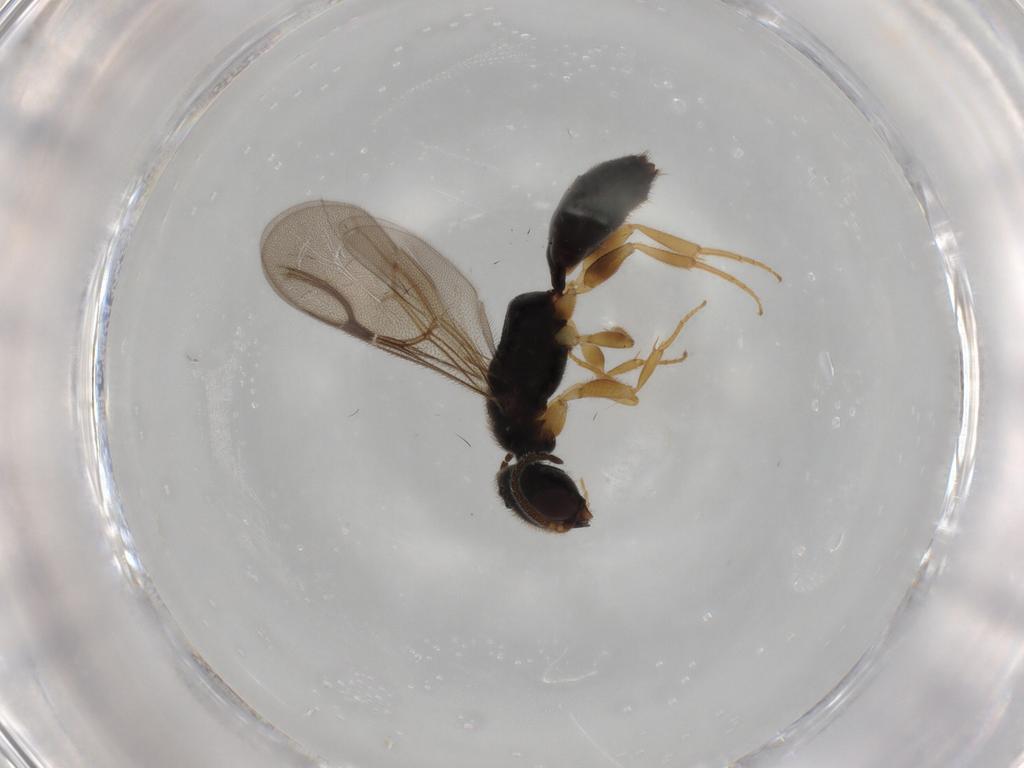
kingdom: Animalia
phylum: Arthropoda
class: Insecta
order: Hymenoptera
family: Bethylidae
